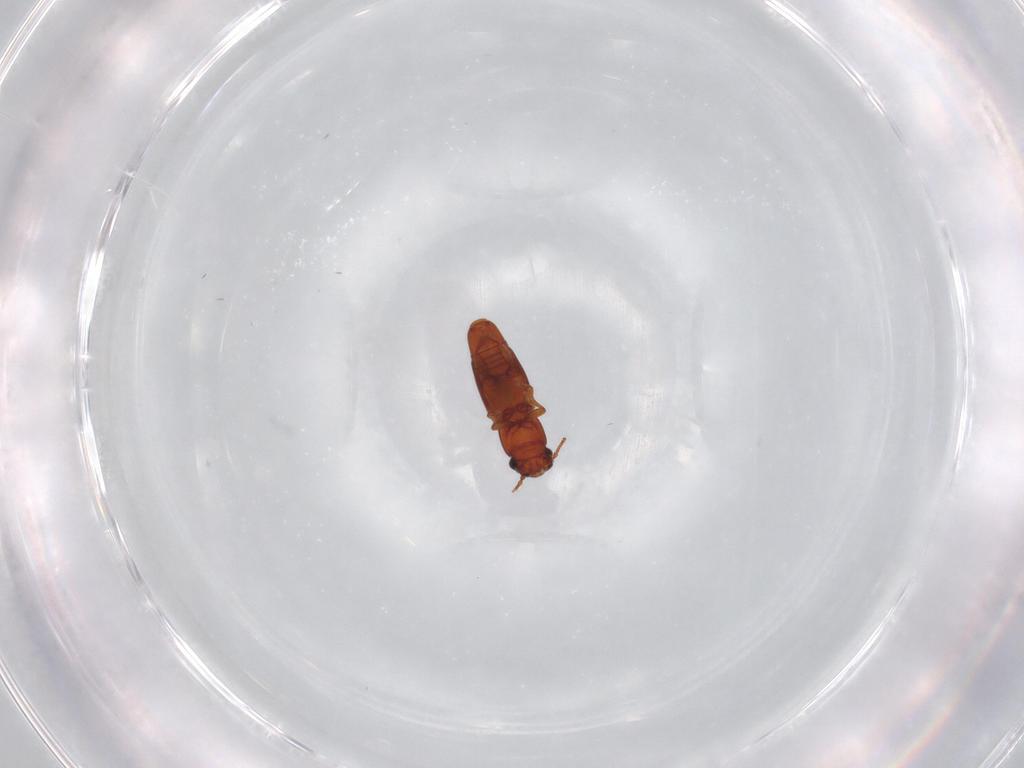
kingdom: Animalia
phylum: Arthropoda
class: Insecta
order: Coleoptera
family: Smicripidae
